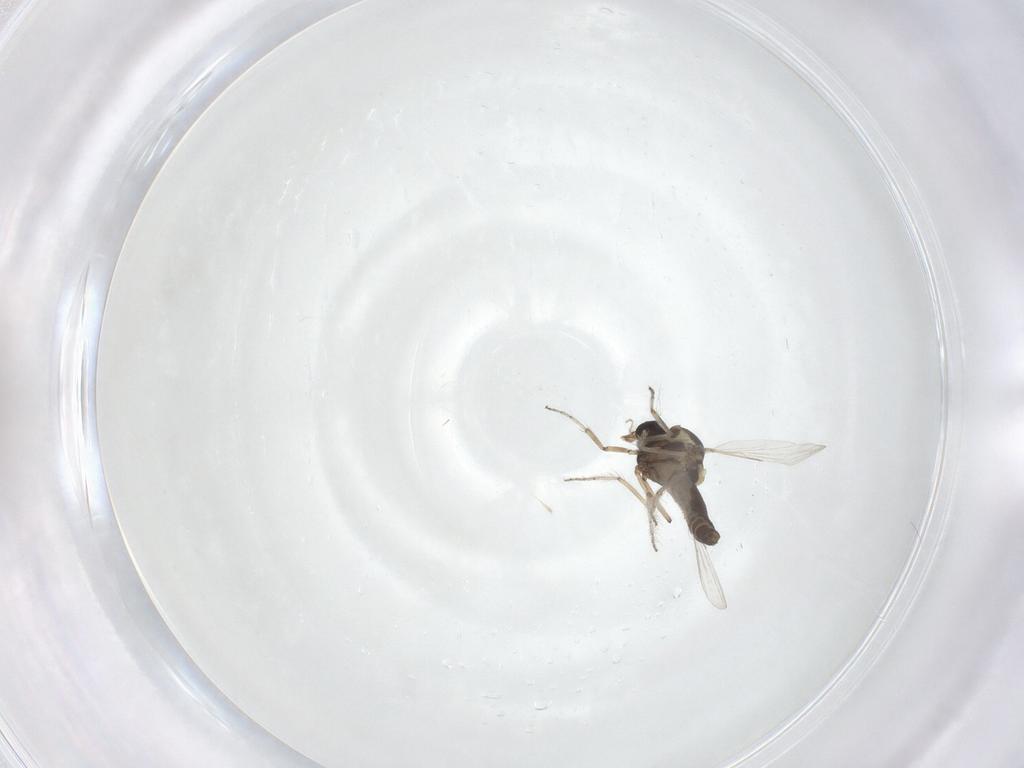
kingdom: Animalia
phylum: Arthropoda
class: Insecta
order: Diptera
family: Ceratopogonidae
